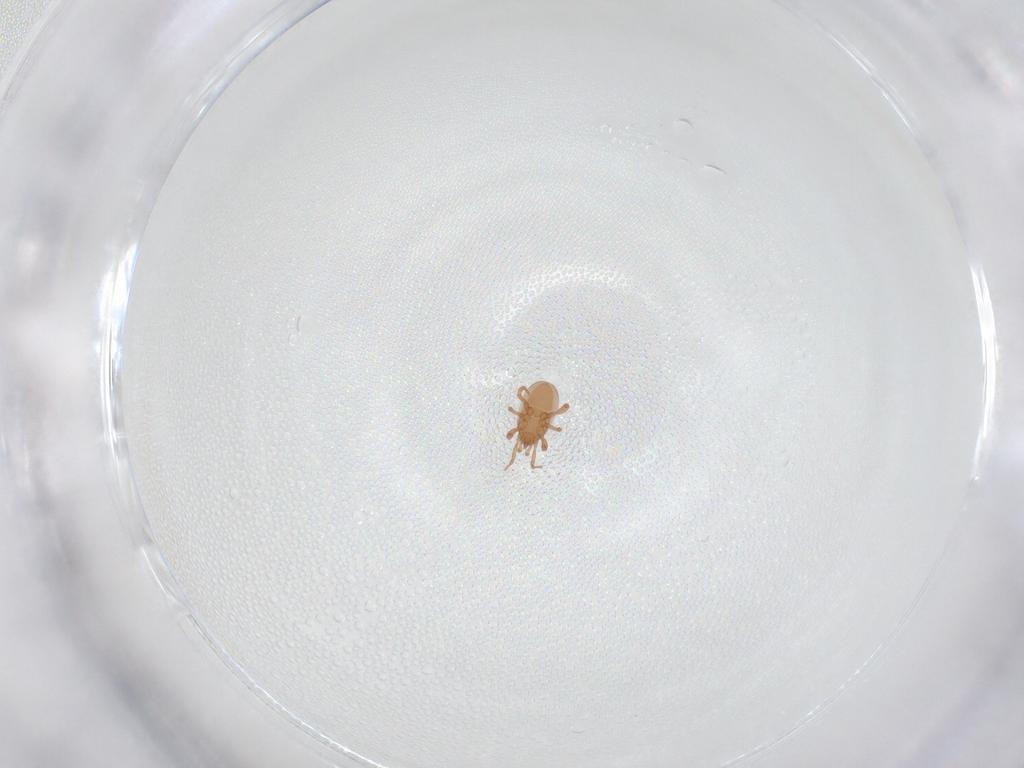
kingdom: Animalia
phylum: Arthropoda
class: Arachnida
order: Mesostigmata
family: Ologamasidae
